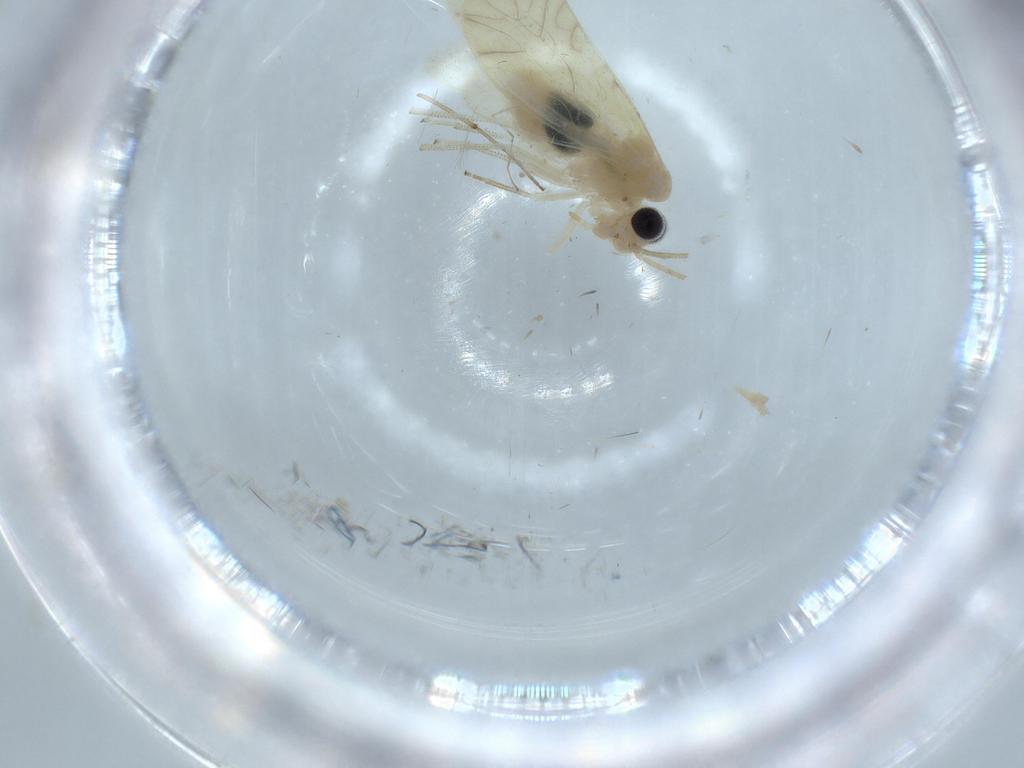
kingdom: Animalia
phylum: Arthropoda
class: Insecta
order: Psocodea
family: Caeciliusidae
